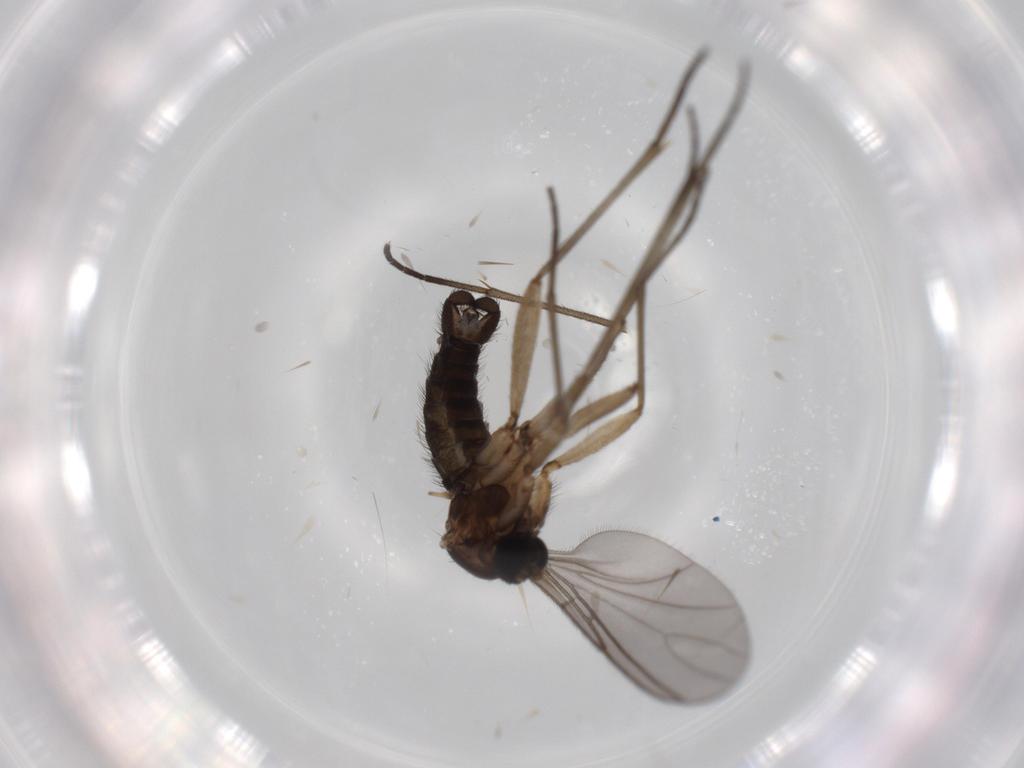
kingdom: Animalia
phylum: Arthropoda
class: Insecta
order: Diptera
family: Sciaridae
